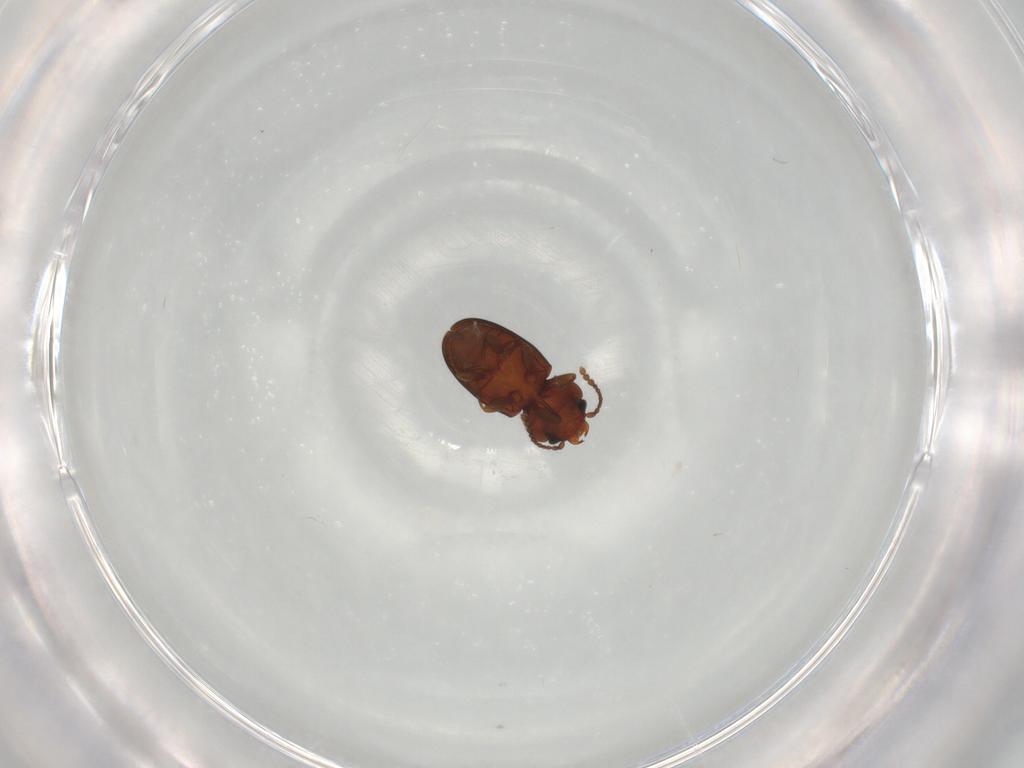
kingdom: Animalia
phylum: Arthropoda
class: Insecta
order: Coleoptera
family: Laemophloeidae
